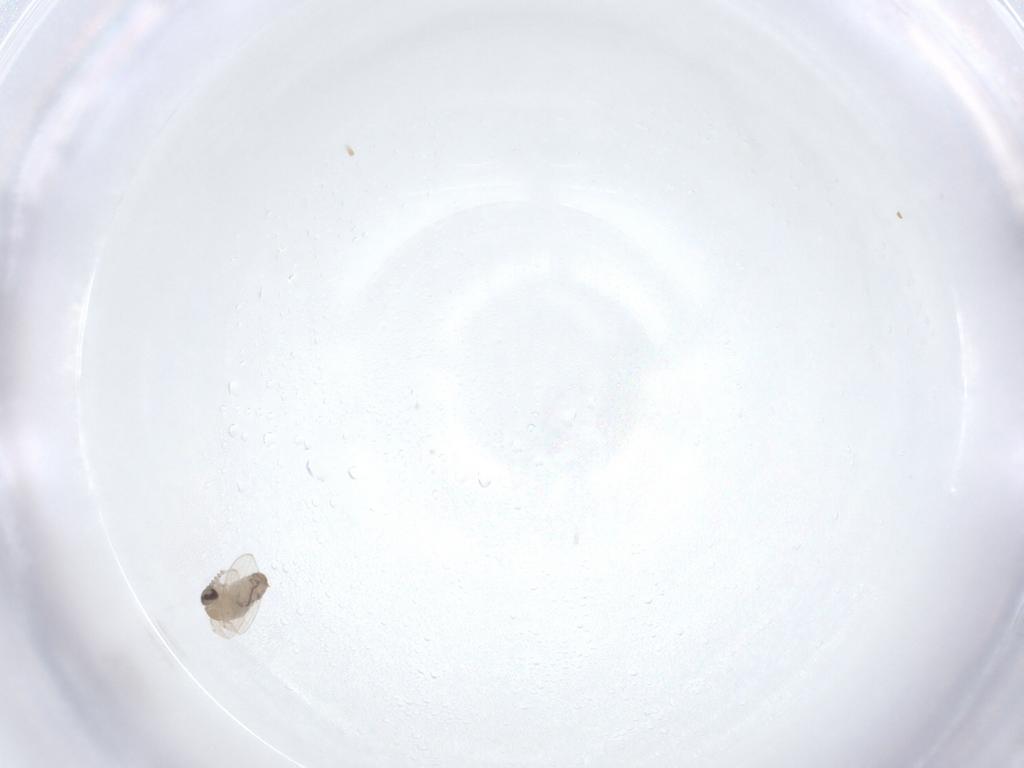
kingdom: Animalia
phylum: Arthropoda
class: Insecta
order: Diptera
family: Psychodidae
